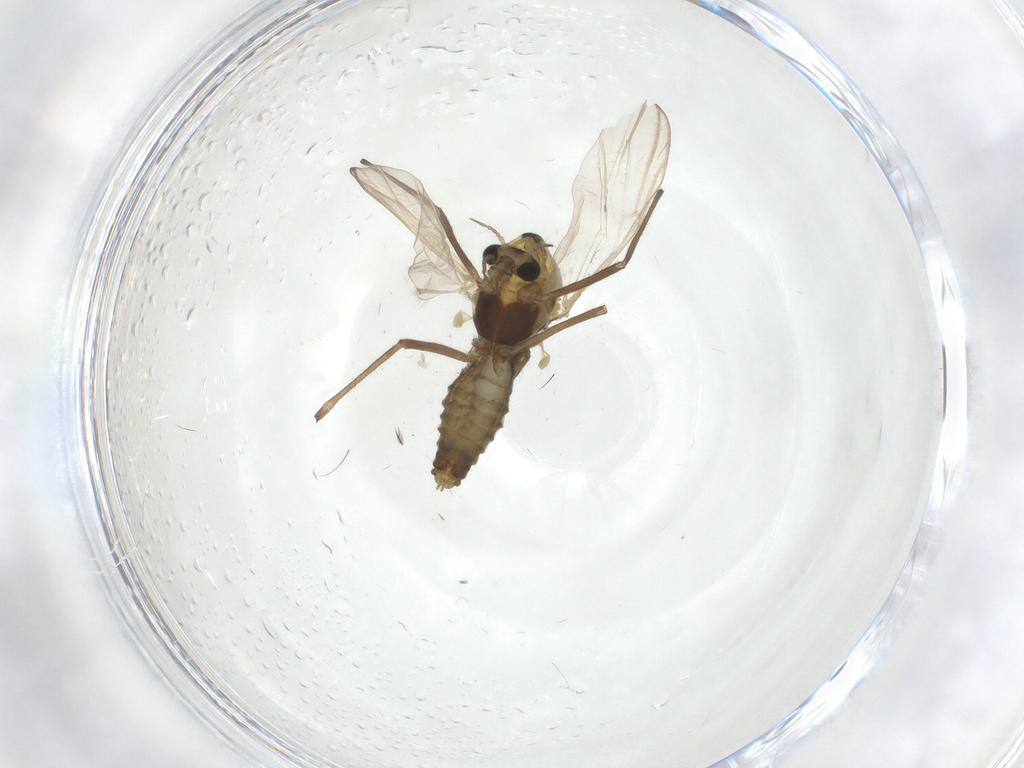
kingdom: Animalia
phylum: Arthropoda
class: Insecta
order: Diptera
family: Chironomidae
